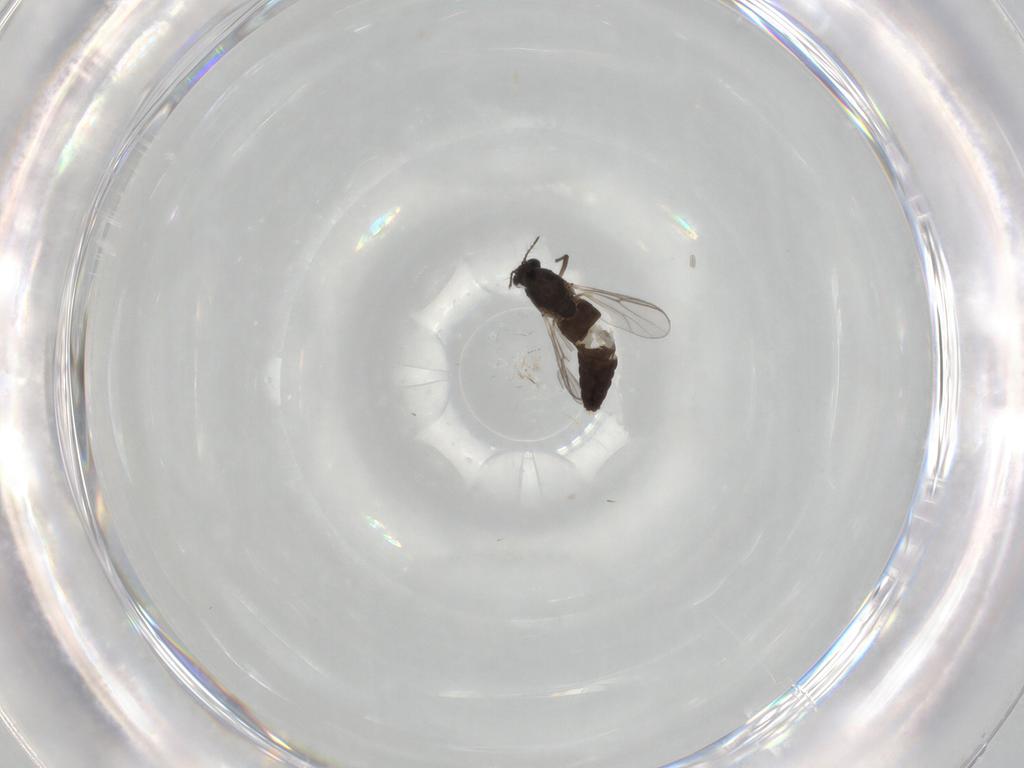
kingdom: Animalia
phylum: Arthropoda
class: Insecta
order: Diptera
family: Chironomidae
